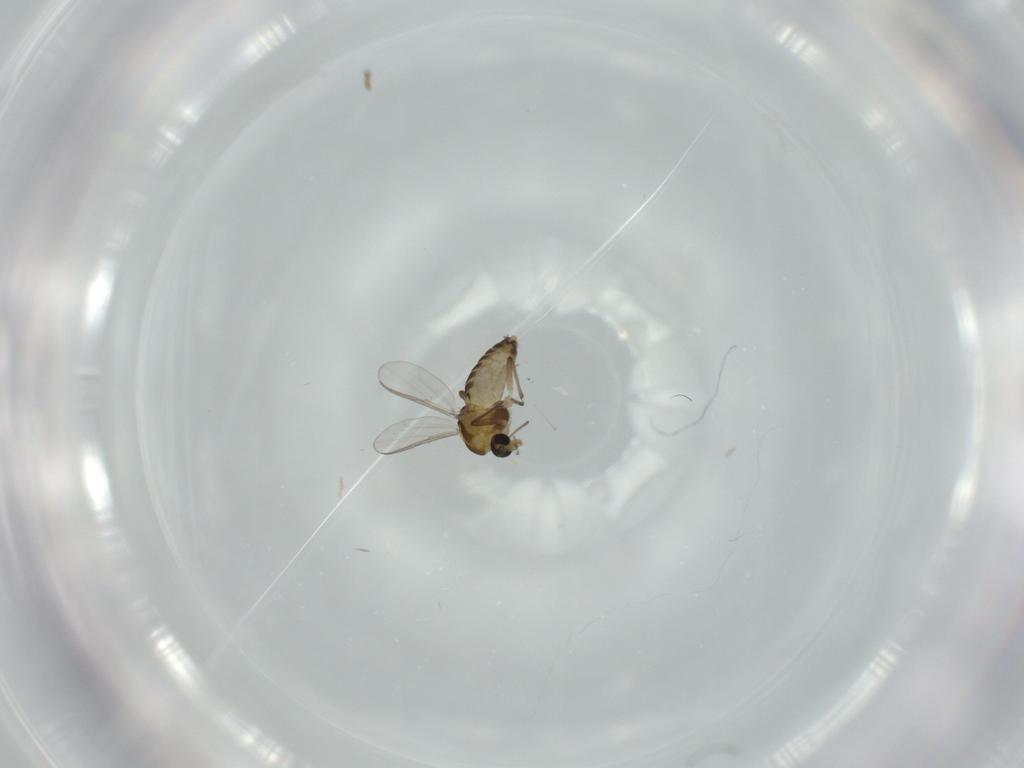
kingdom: Animalia
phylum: Arthropoda
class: Insecta
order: Diptera
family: Chironomidae
